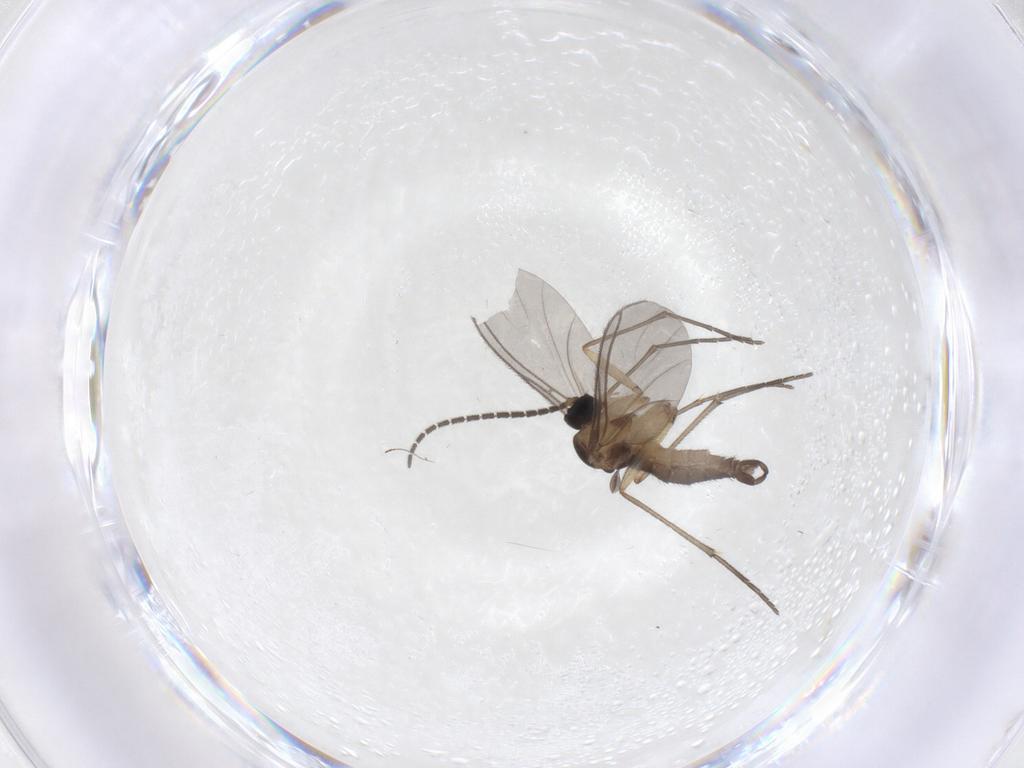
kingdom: Animalia
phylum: Arthropoda
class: Insecta
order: Diptera
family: Sciaridae
